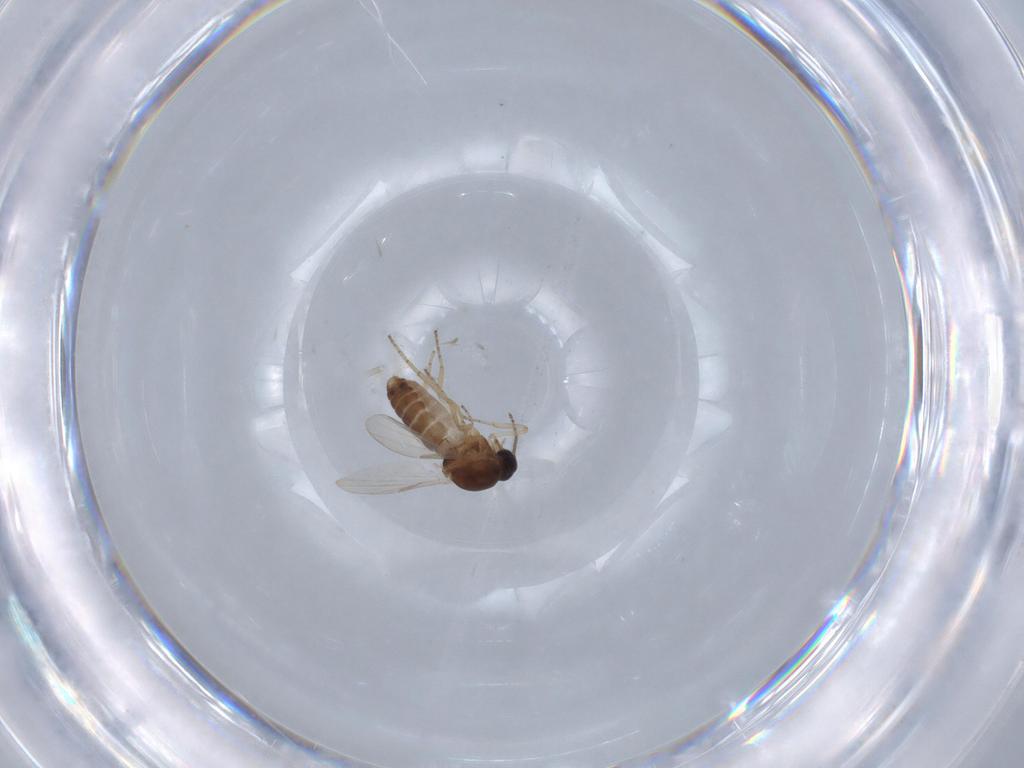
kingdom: Animalia
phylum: Arthropoda
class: Insecta
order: Diptera
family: Ceratopogonidae
